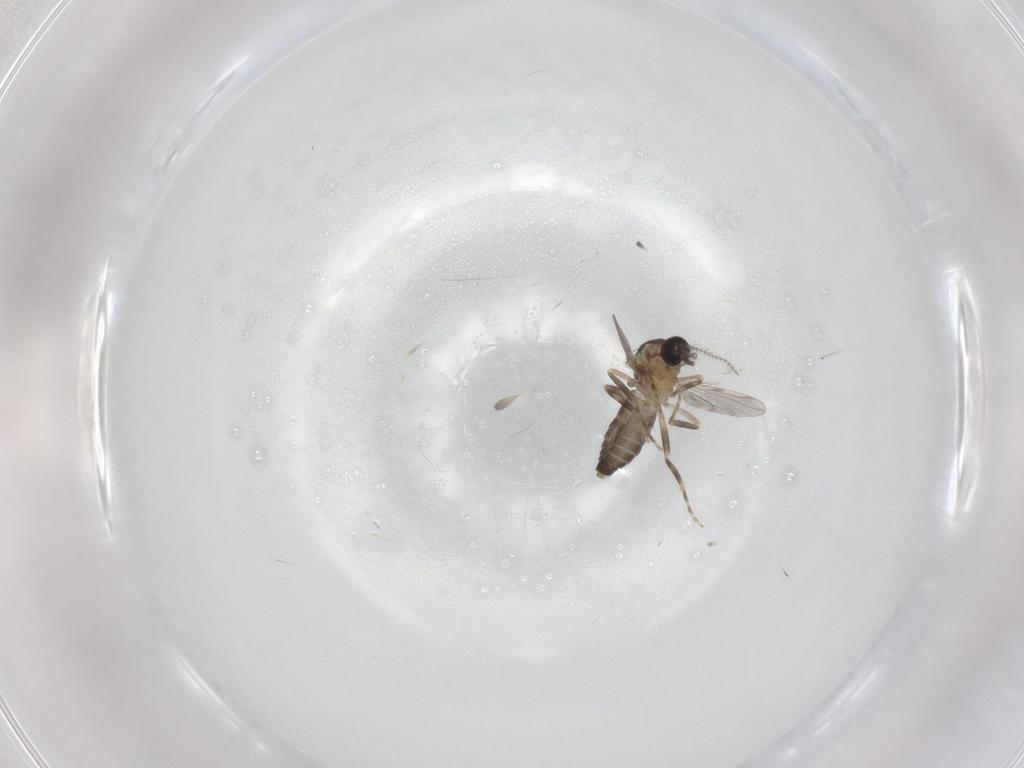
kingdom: Animalia
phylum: Arthropoda
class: Insecta
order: Diptera
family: Ceratopogonidae
